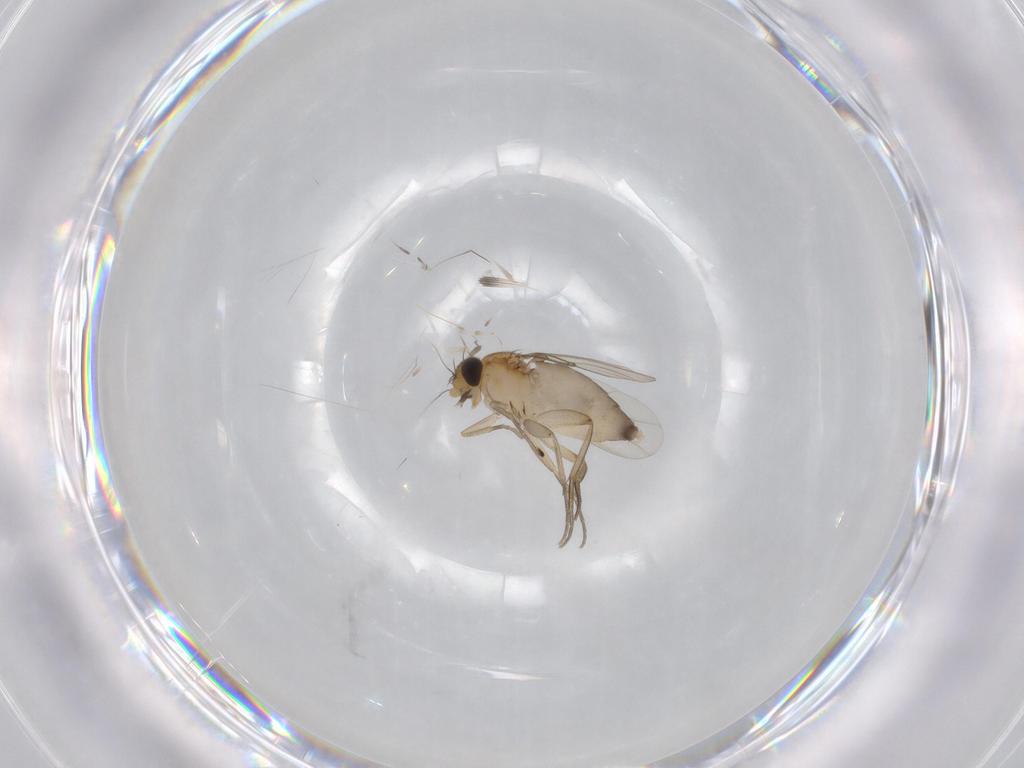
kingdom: Animalia
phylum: Arthropoda
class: Insecta
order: Diptera
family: Phoridae
